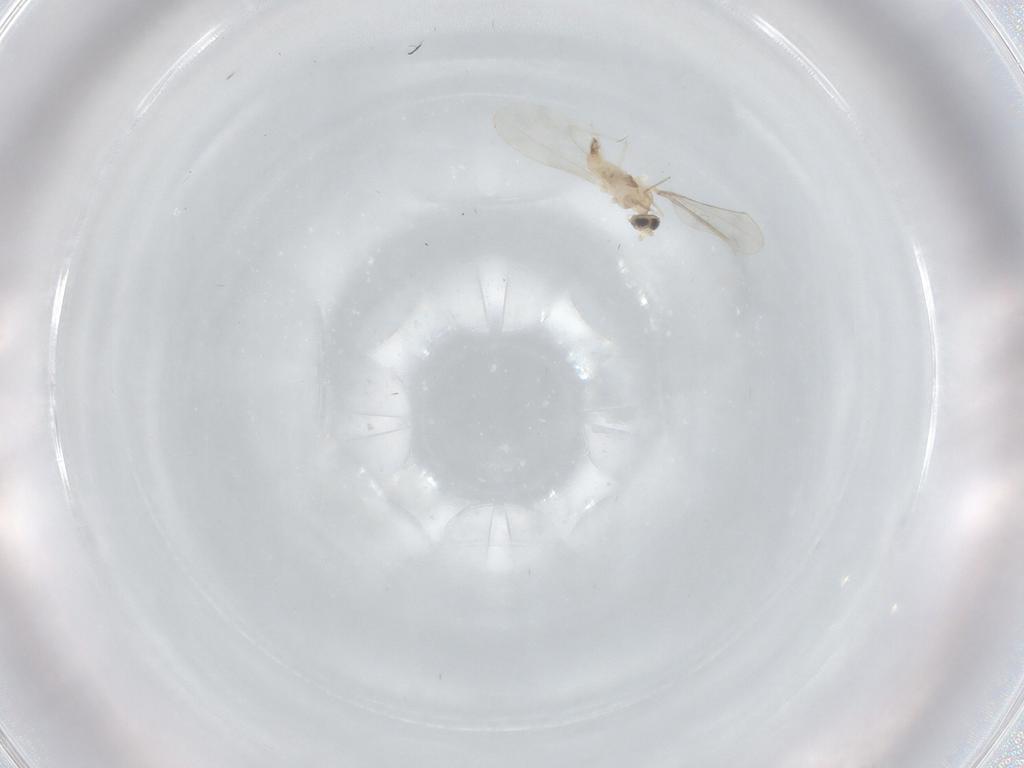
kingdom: Animalia
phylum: Arthropoda
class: Insecta
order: Diptera
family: Cecidomyiidae
